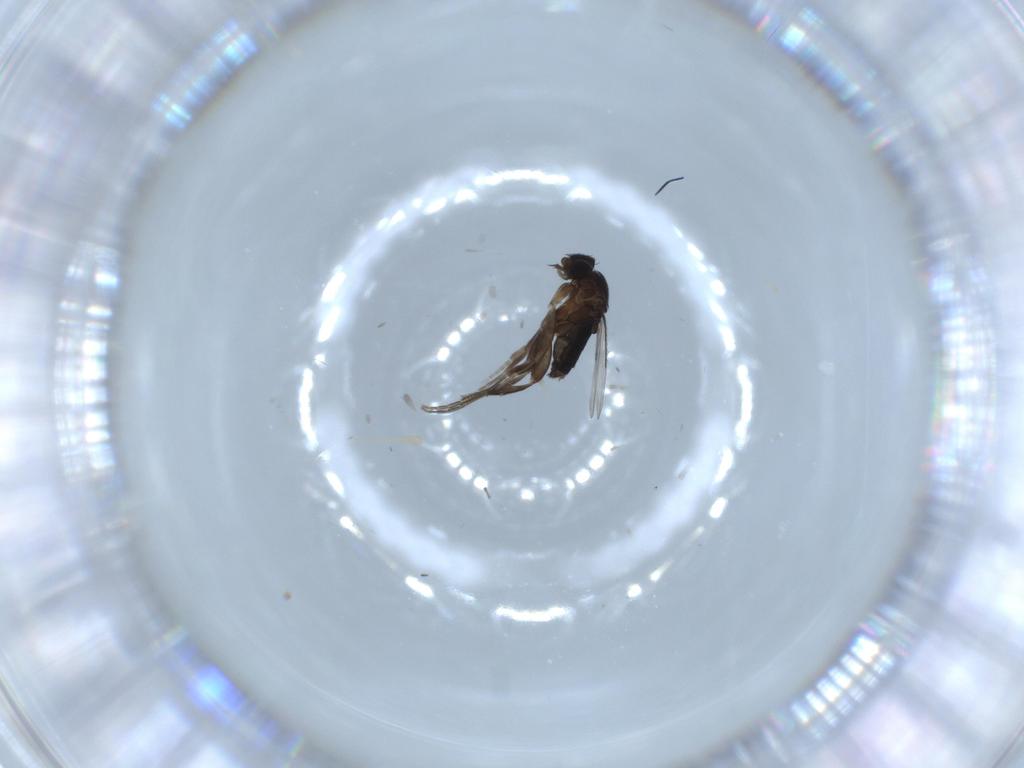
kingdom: Animalia
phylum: Arthropoda
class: Insecta
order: Diptera
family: Phoridae
